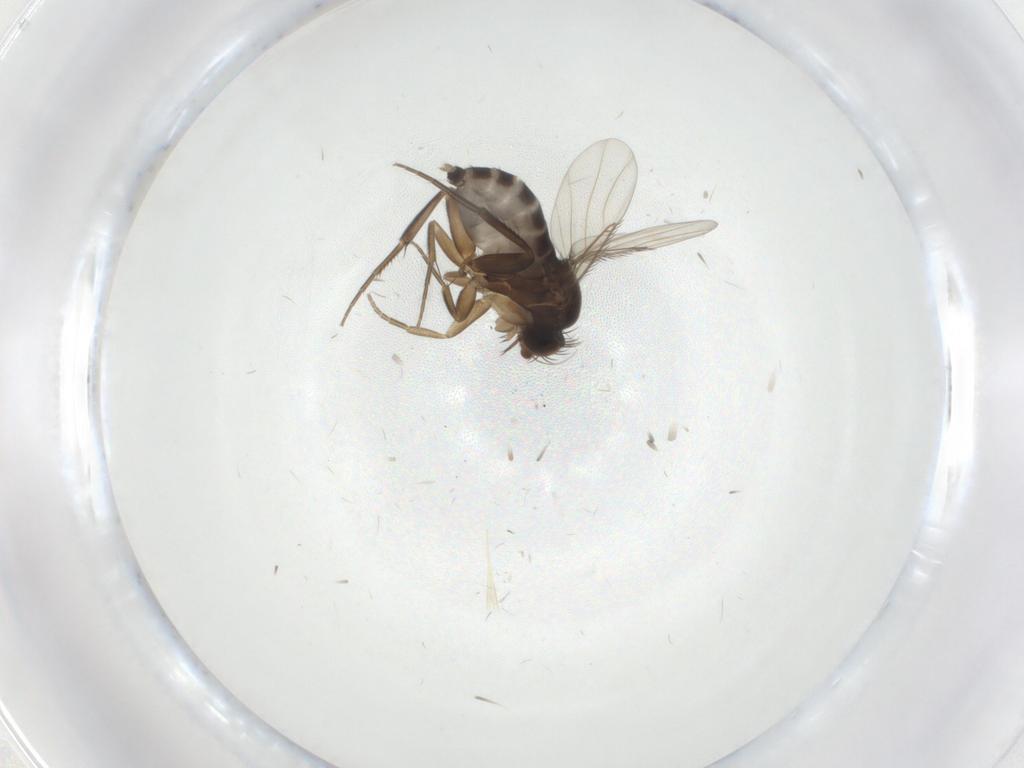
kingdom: Animalia
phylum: Arthropoda
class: Insecta
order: Diptera
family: Phoridae
